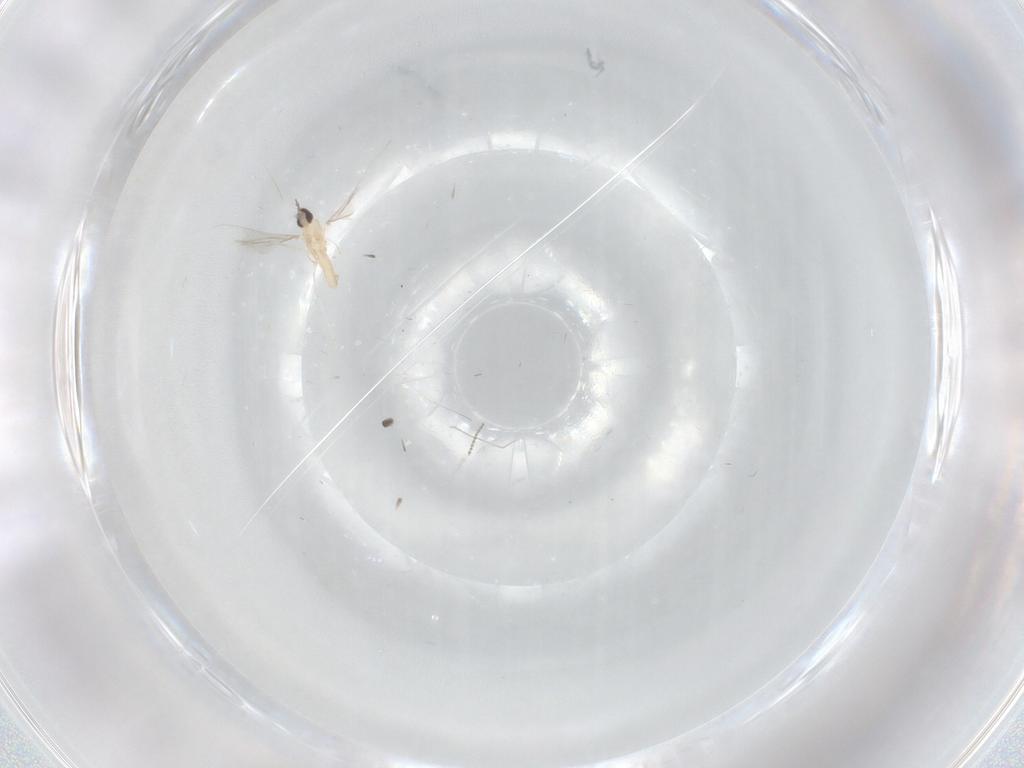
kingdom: Animalia
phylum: Arthropoda
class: Insecta
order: Diptera
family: Cecidomyiidae
